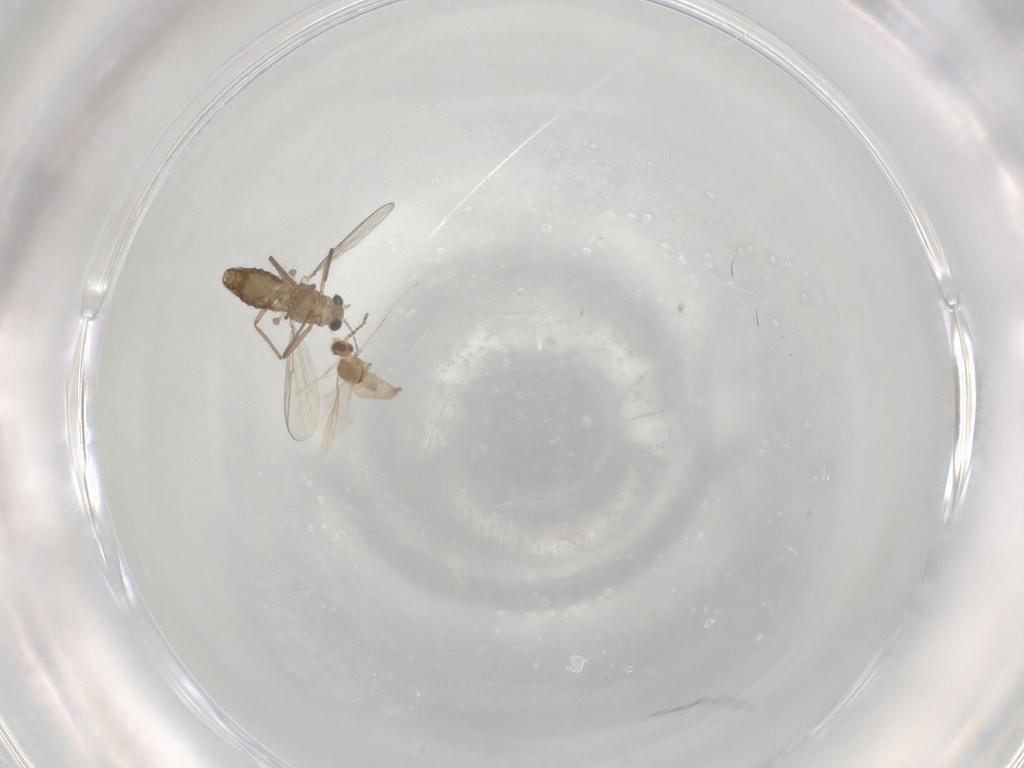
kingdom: Animalia
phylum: Arthropoda
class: Insecta
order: Diptera
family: Chironomidae
